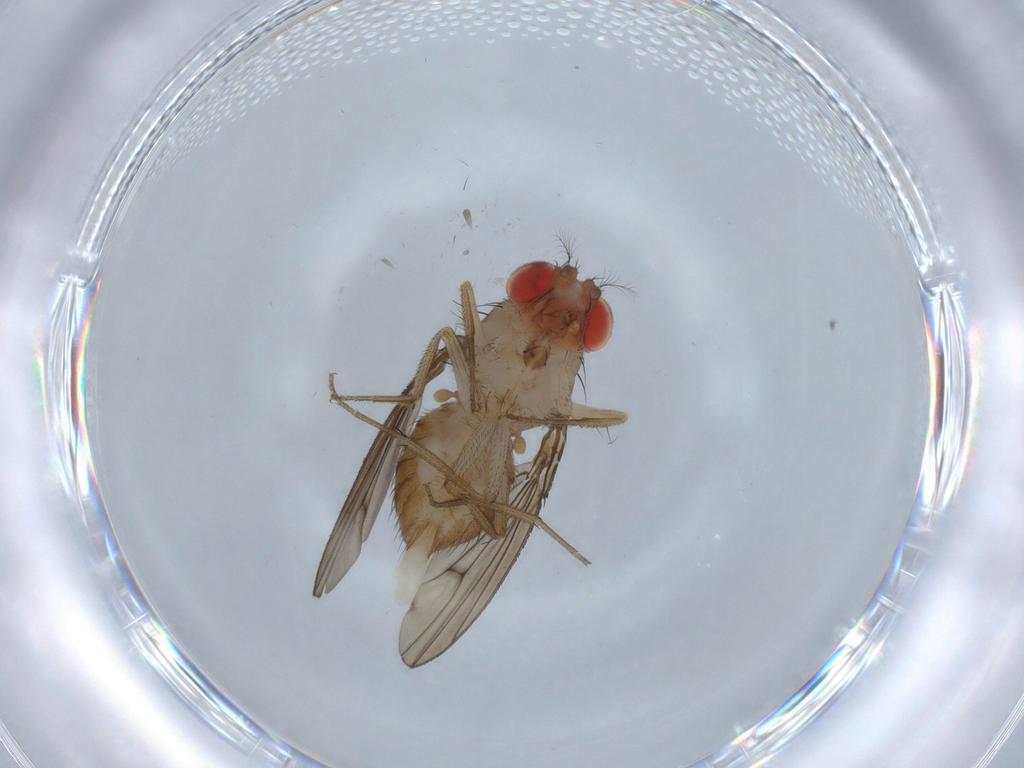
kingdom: Animalia
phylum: Arthropoda
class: Insecta
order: Diptera
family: Drosophilidae
